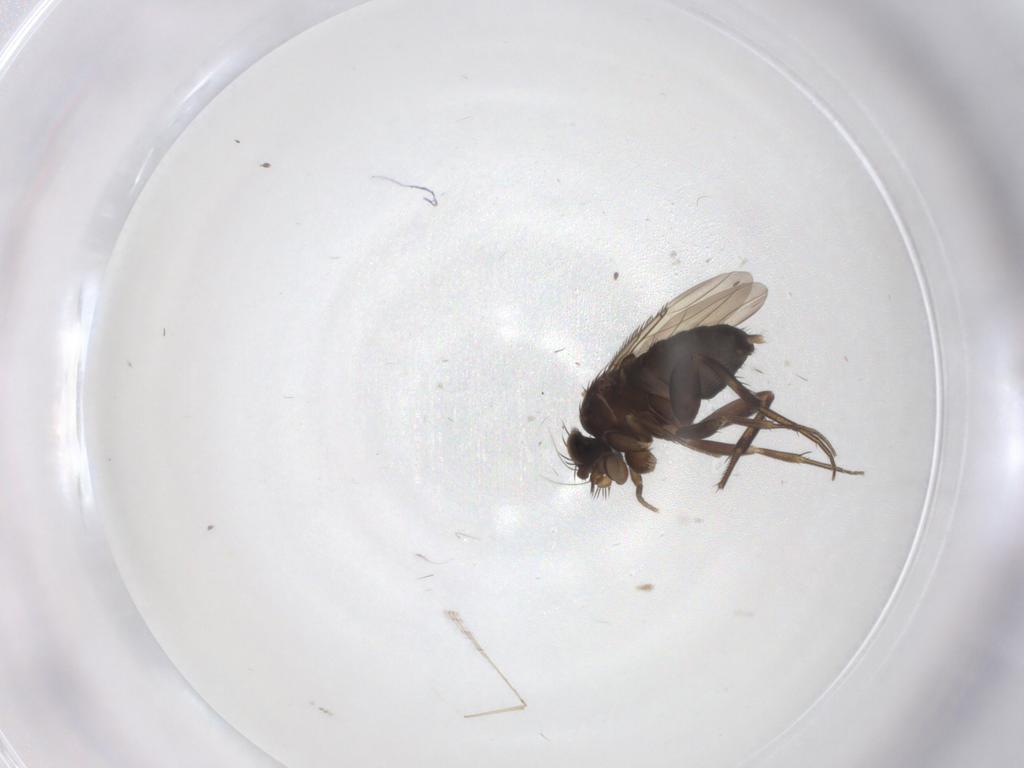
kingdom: Animalia
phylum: Arthropoda
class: Insecta
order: Diptera
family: Phoridae
